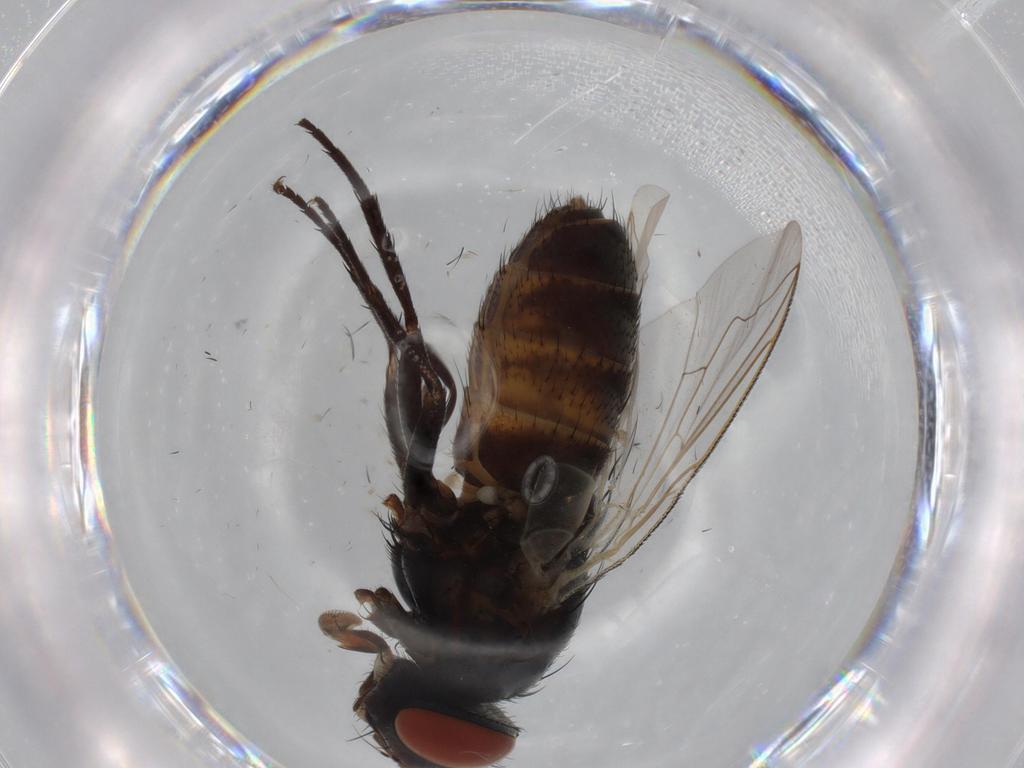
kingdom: Animalia
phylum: Arthropoda
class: Insecta
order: Diptera
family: Sarcophagidae
